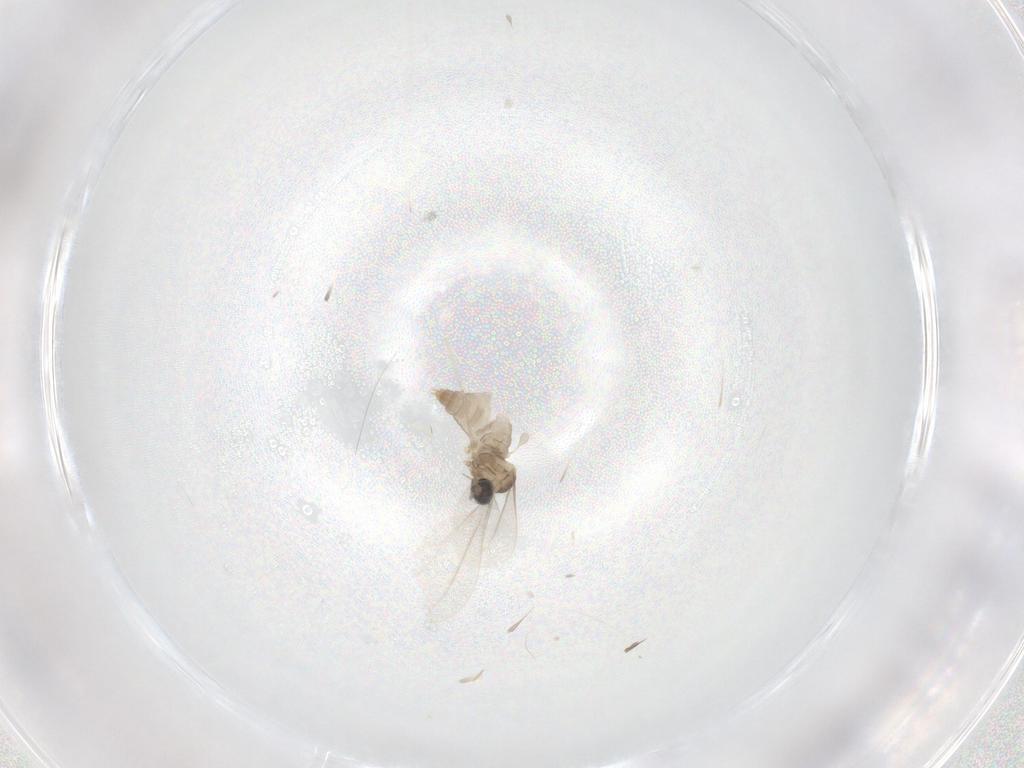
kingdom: Animalia
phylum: Arthropoda
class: Insecta
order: Diptera
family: Cecidomyiidae
